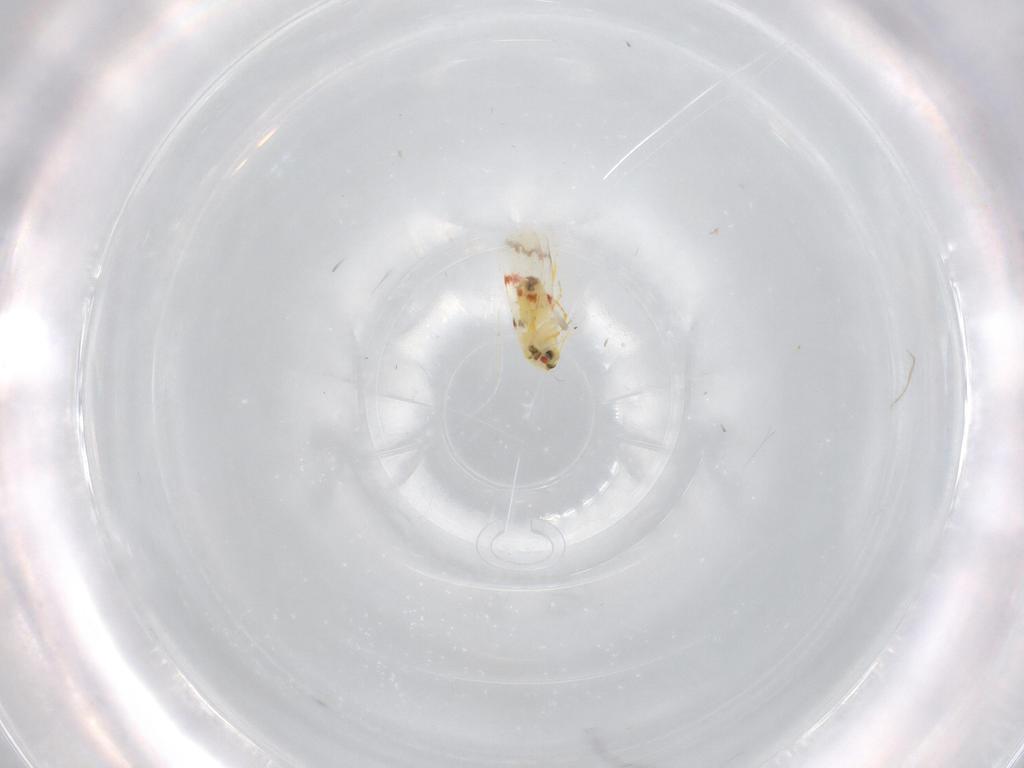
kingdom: Animalia
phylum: Arthropoda
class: Insecta
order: Hemiptera
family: Aleyrodidae
